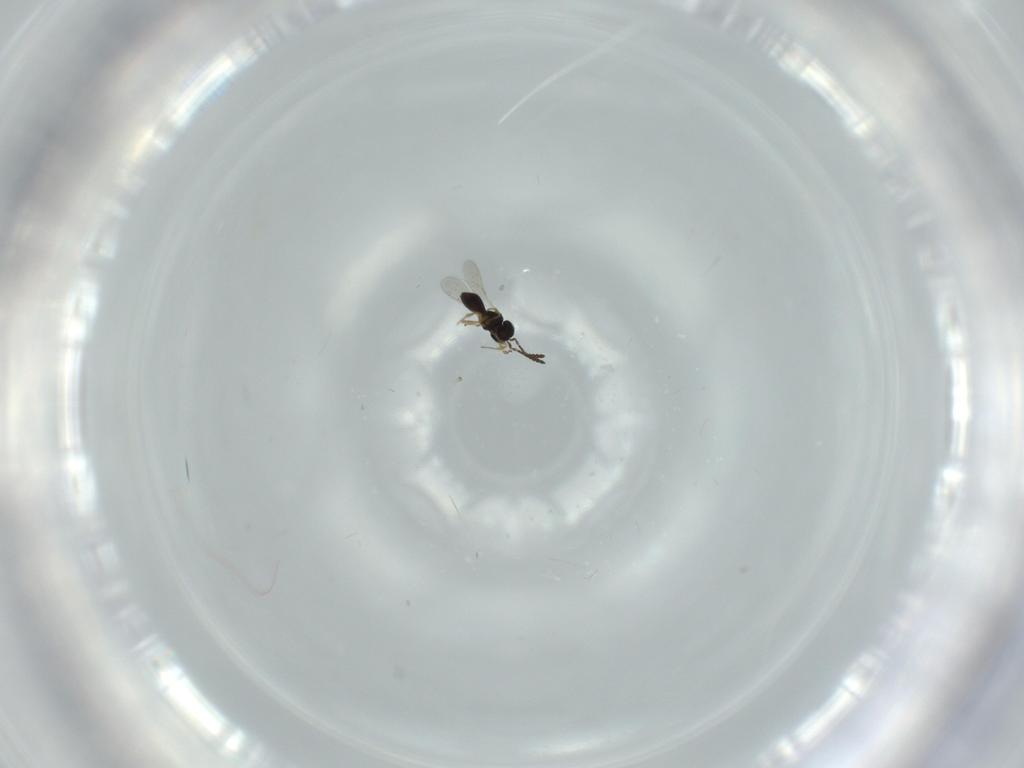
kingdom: Animalia
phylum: Arthropoda
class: Insecta
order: Hymenoptera
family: Scelionidae
